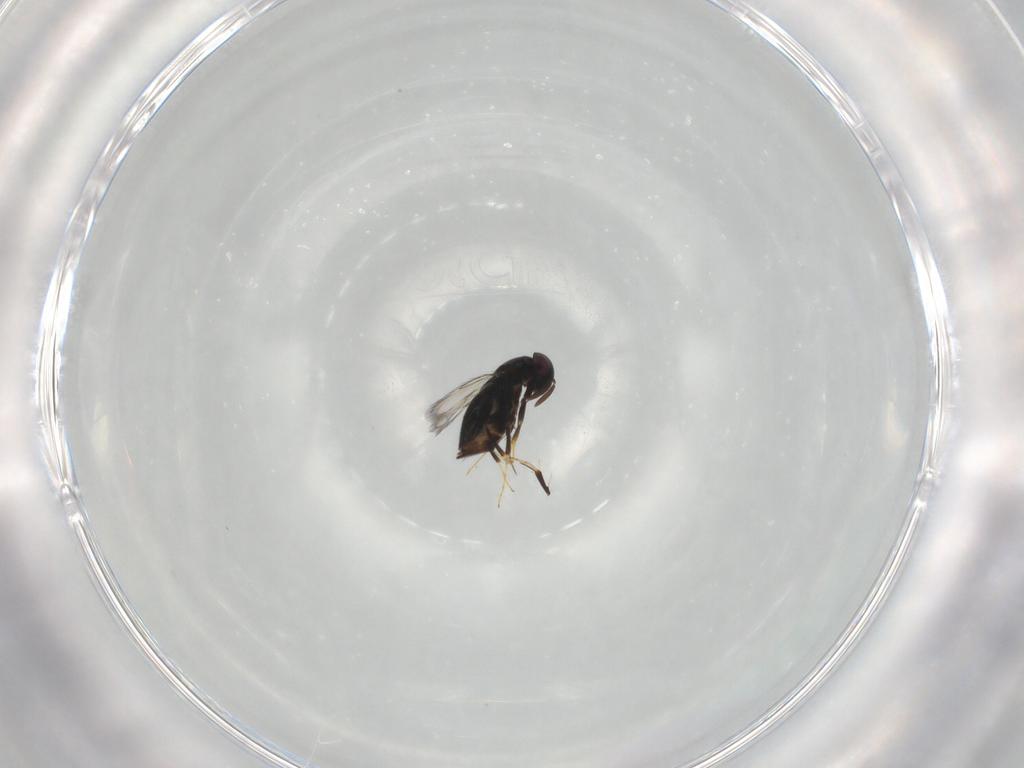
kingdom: Animalia
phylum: Arthropoda
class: Insecta
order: Hymenoptera
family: Signiphoridae
